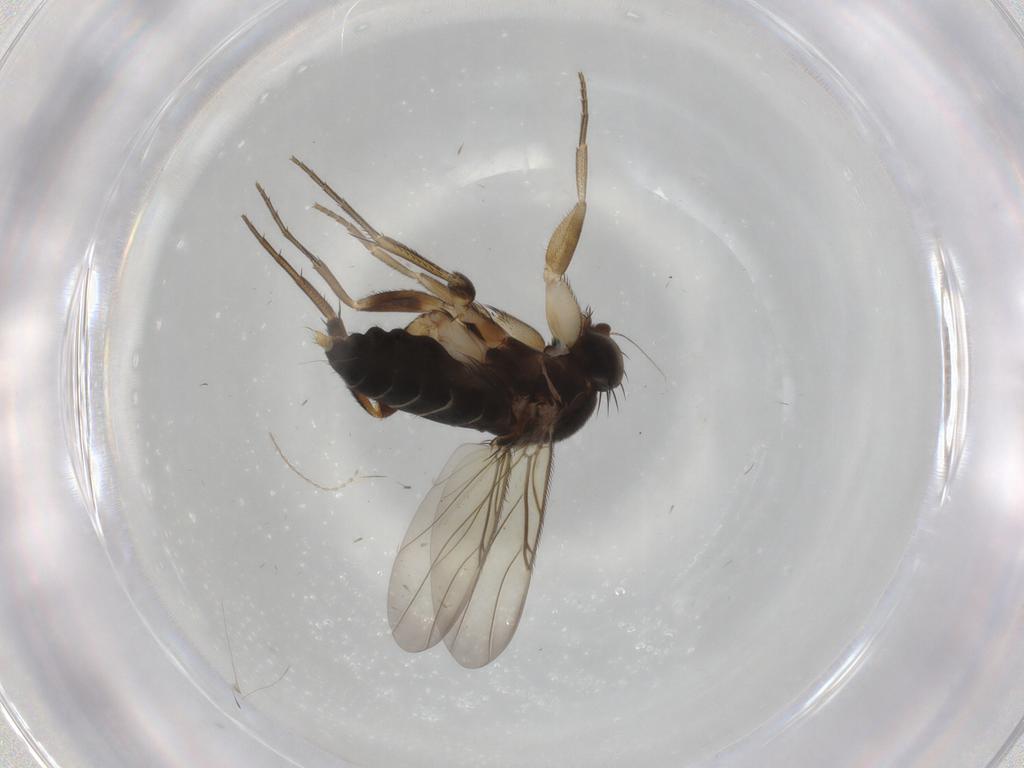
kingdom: Animalia
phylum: Arthropoda
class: Insecta
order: Diptera
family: Phoridae
